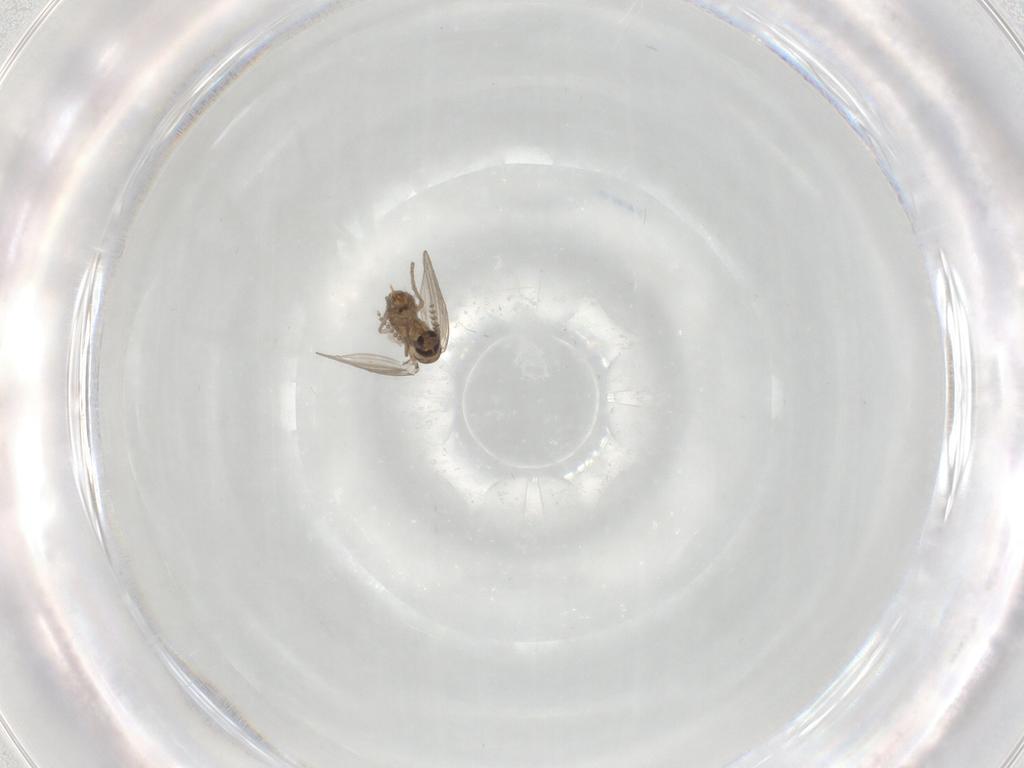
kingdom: Animalia
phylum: Arthropoda
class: Insecta
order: Diptera
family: Psychodidae
